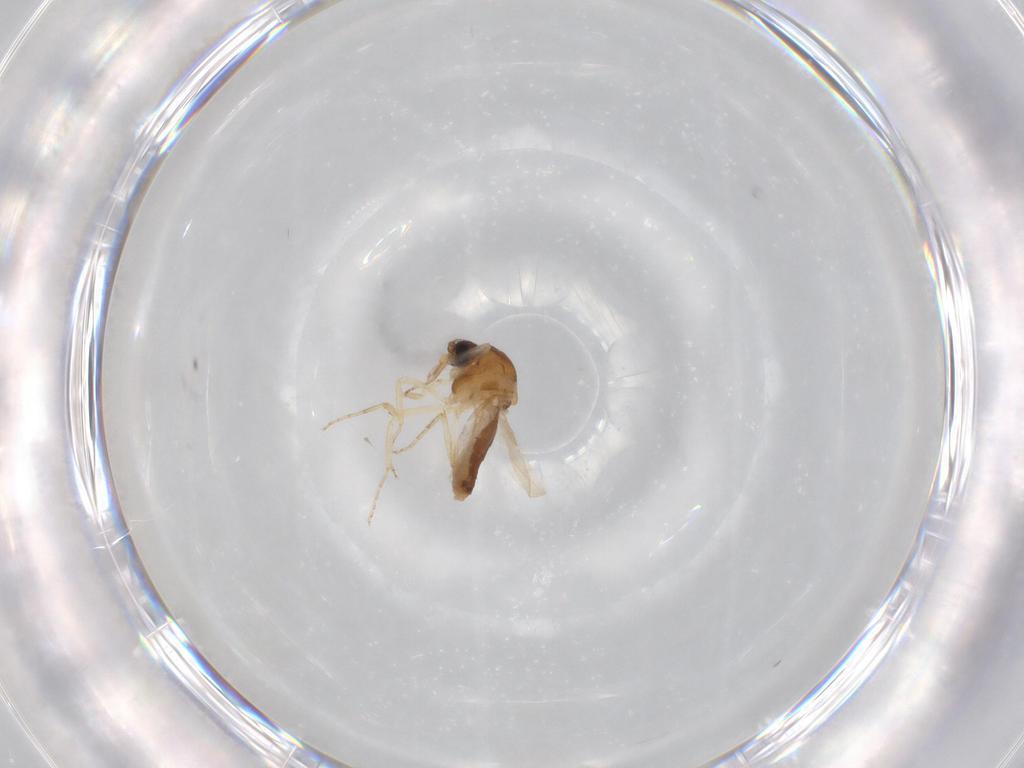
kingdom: Animalia
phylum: Arthropoda
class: Insecta
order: Diptera
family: Ceratopogonidae
